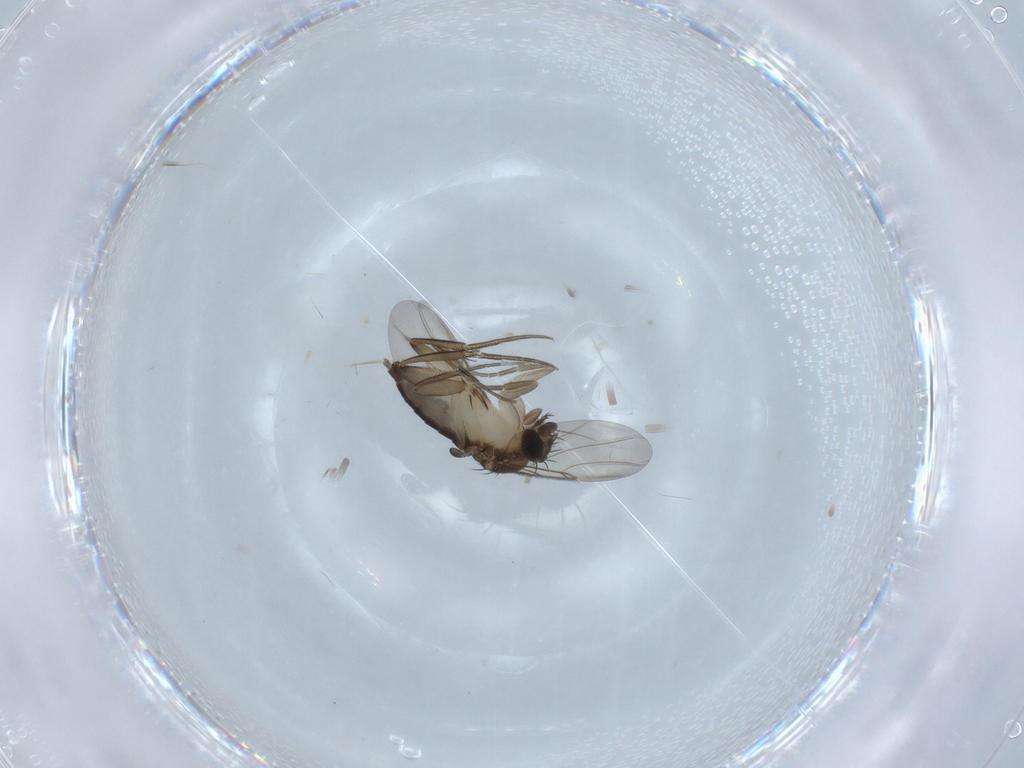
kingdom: Animalia
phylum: Arthropoda
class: Insecta
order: Diptera
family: Phoridae
